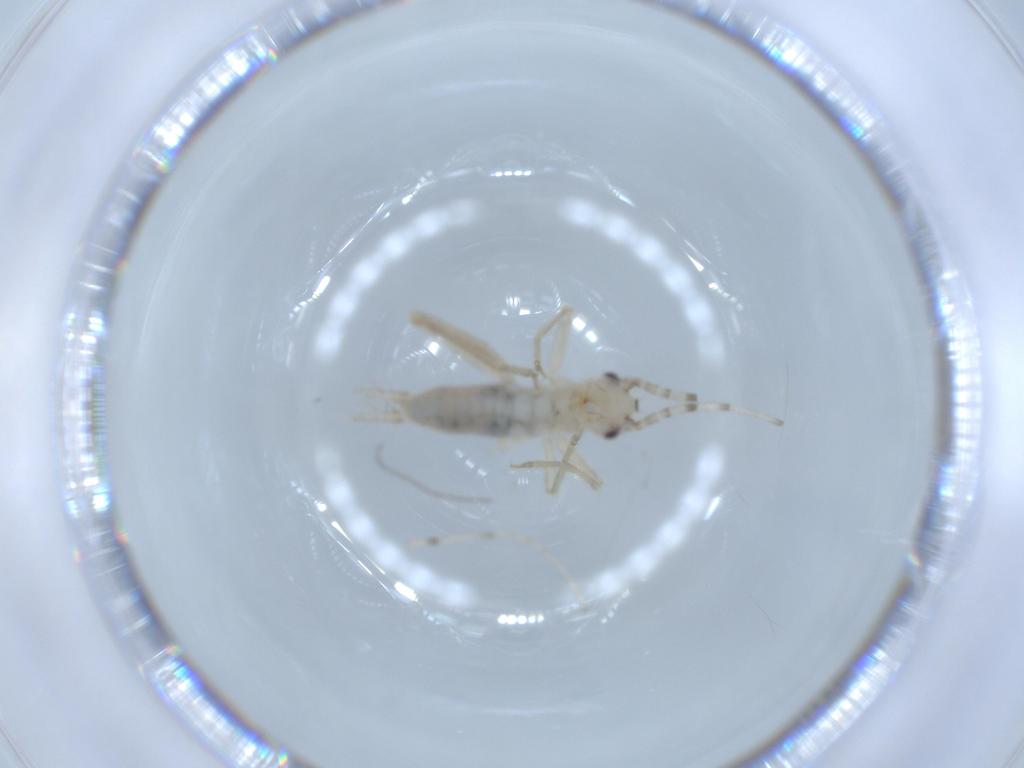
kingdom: Animalia
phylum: Arthropoda
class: Insecta
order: Orthoptera
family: Trigonidiidae
